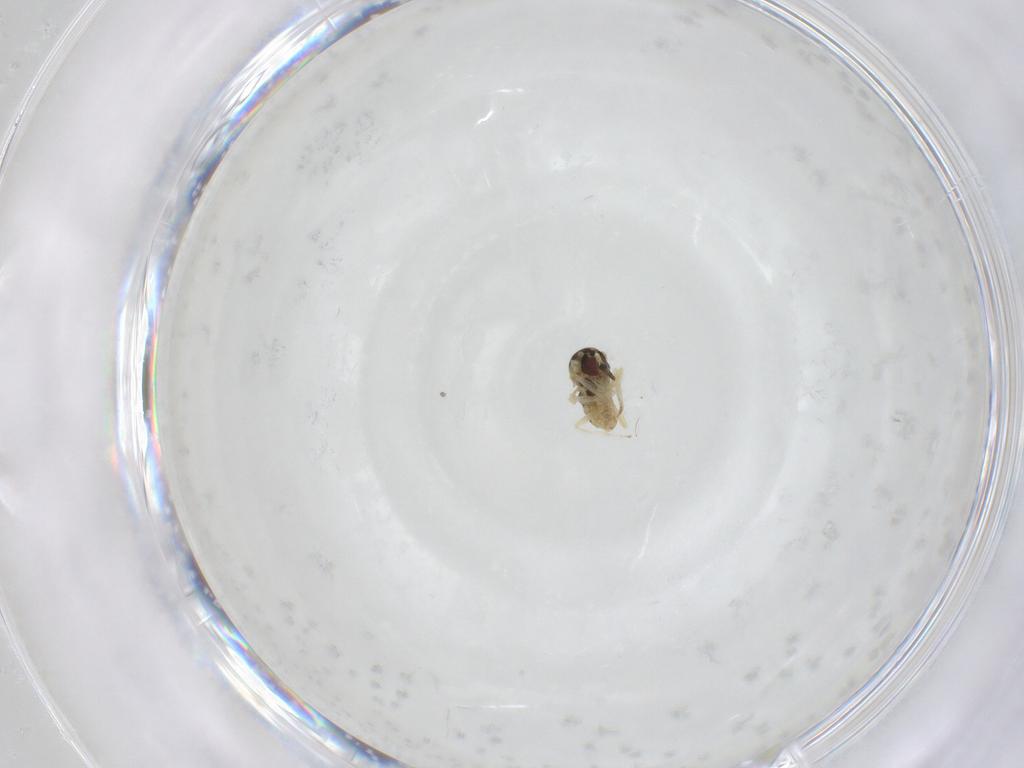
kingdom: Animalia
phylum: Arthropoda
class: Insecta
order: Diptera
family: Mythicomyiidae
